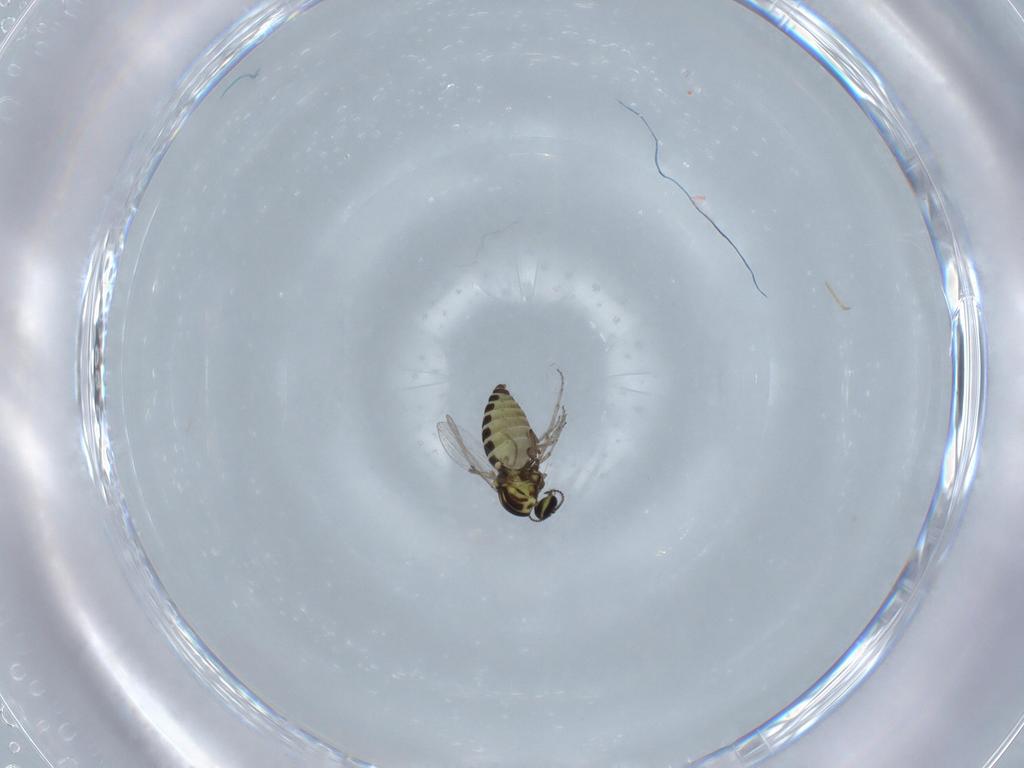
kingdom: Animalia
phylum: Arthropoda
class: Insecta
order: Diptera
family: Ceratopogonidae
